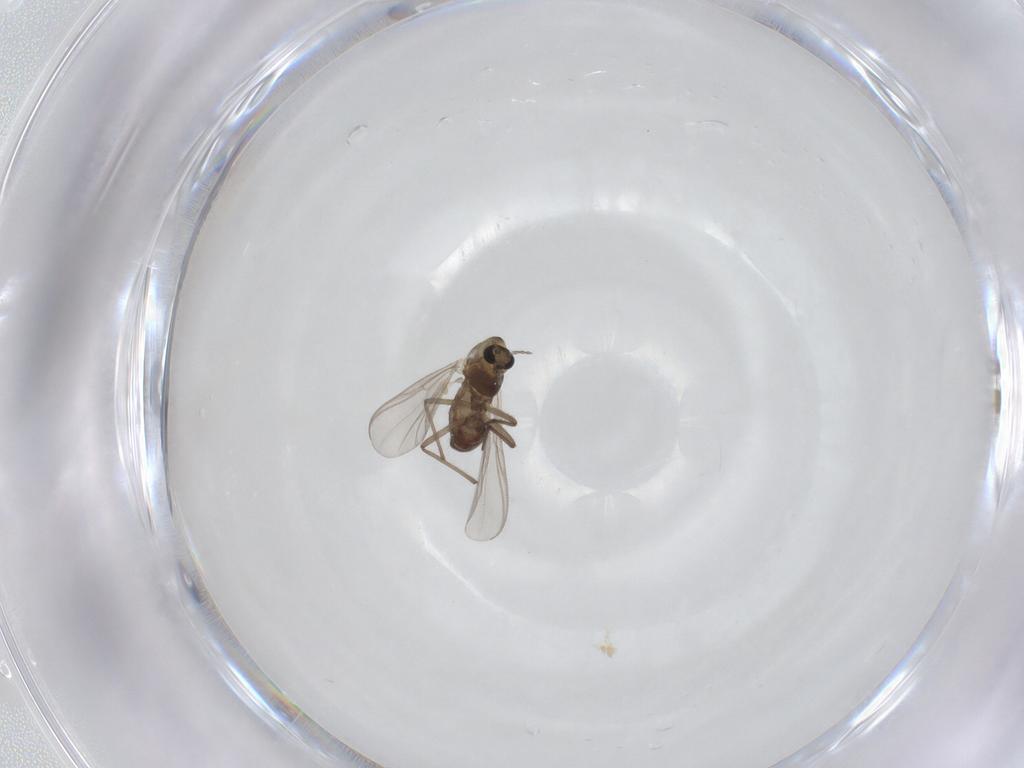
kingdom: Animalia
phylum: Arthropoda
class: Insecta
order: Diptera
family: Chironomidae
